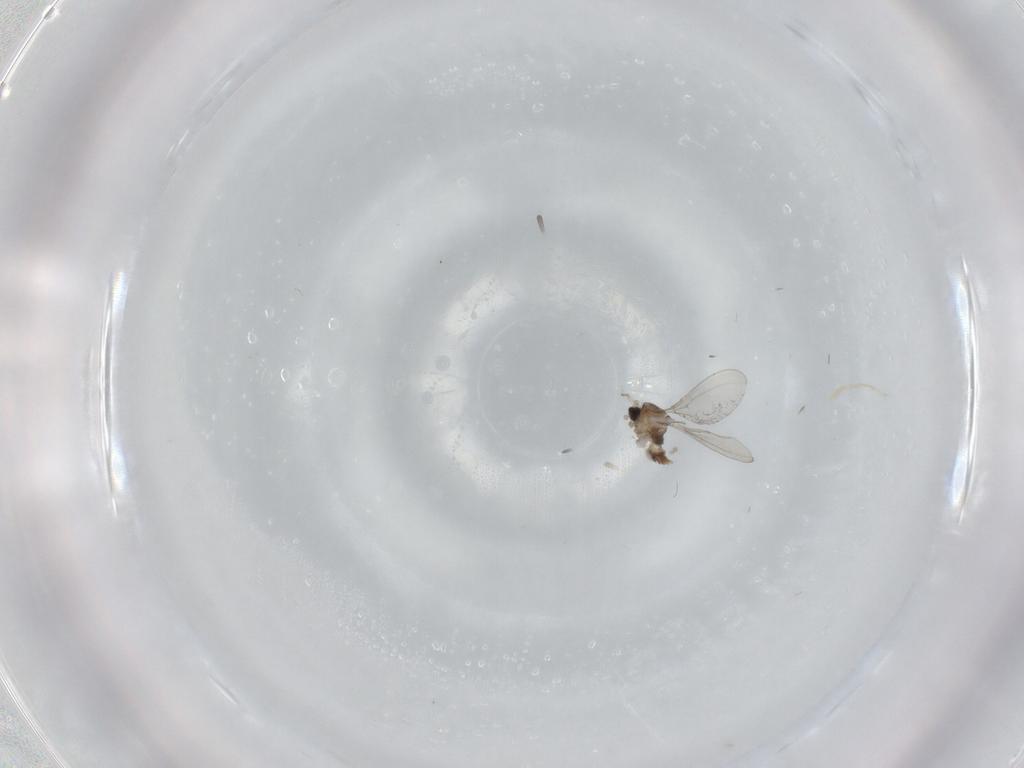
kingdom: Animalia
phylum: Arthropoda
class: Insecta
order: Diptera
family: Cecidomyiidae
